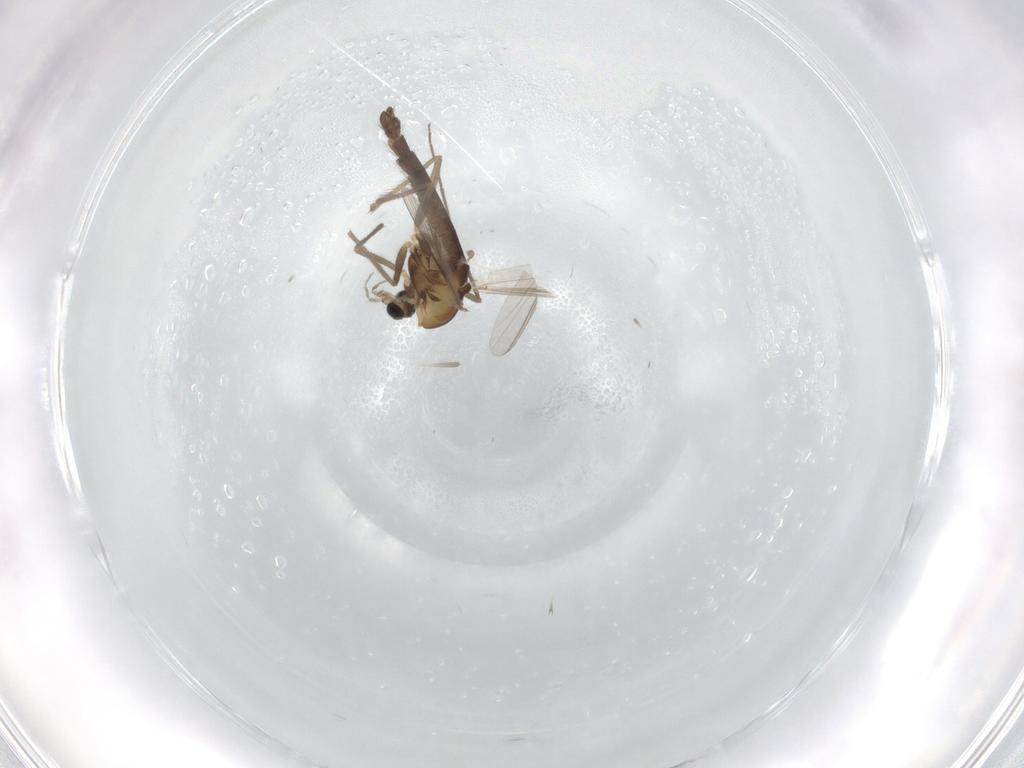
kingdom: Animalia
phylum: Arthropoda
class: Insecta
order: Diptera
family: Chironomidae
